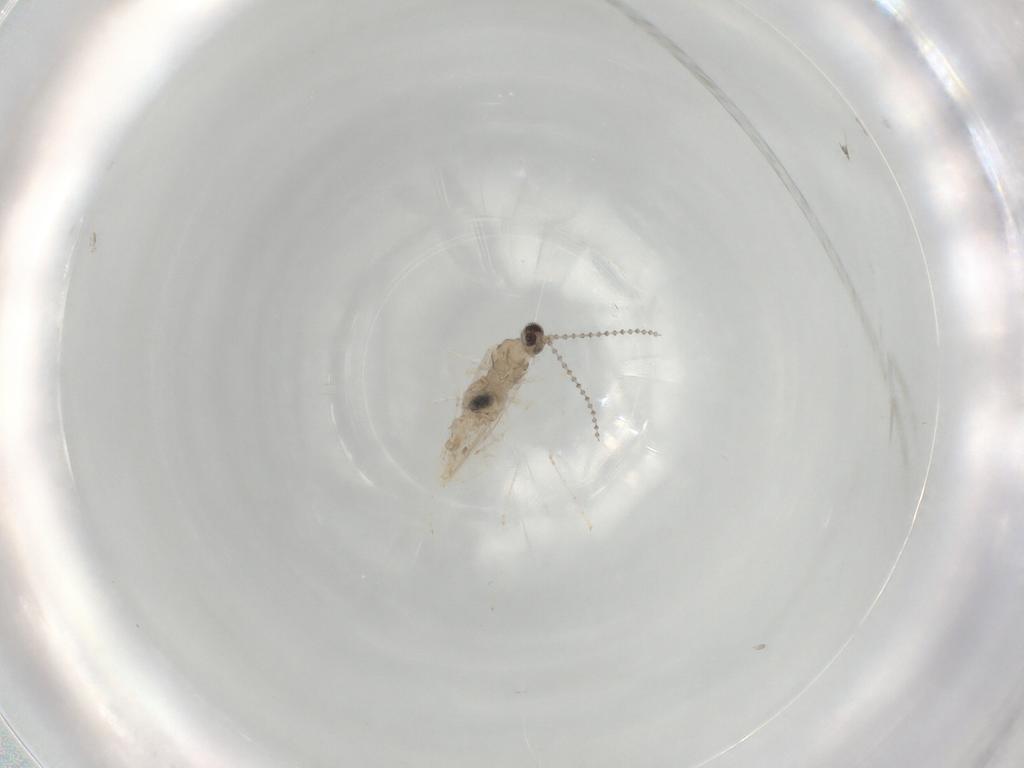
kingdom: Animalia
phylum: Arthropoda
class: Insecta
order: Diptera
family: Cecidomyiidae
